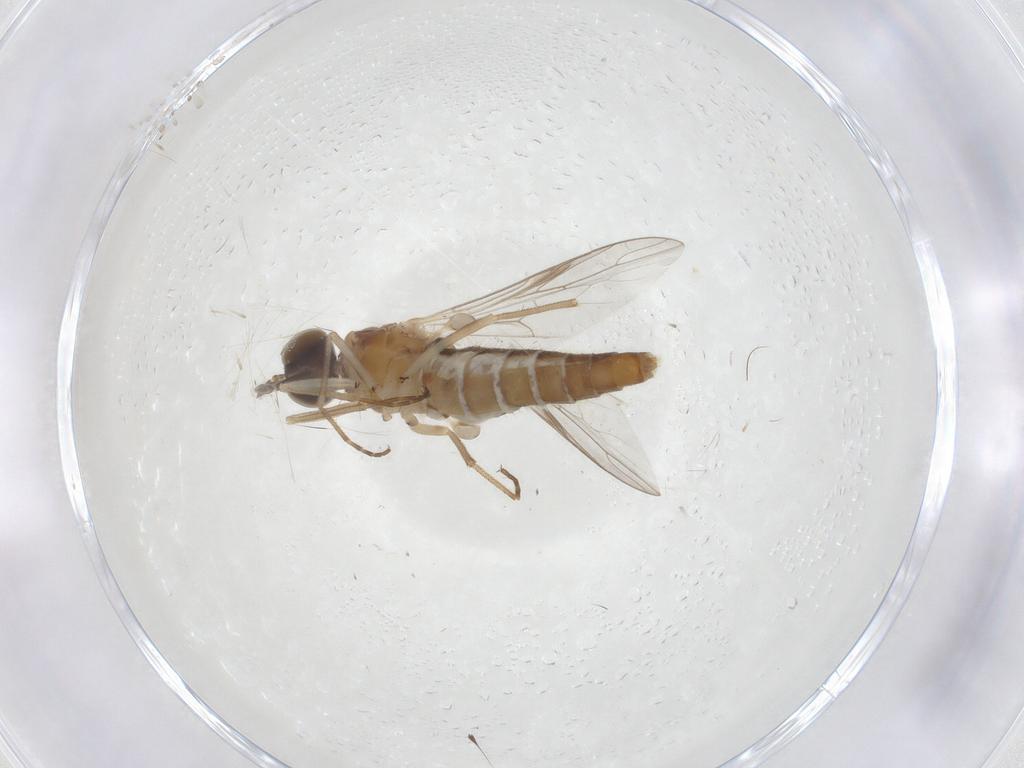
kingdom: Animalia
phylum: Arthropoda
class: Insecta
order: Diptera
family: Scenopinidae
